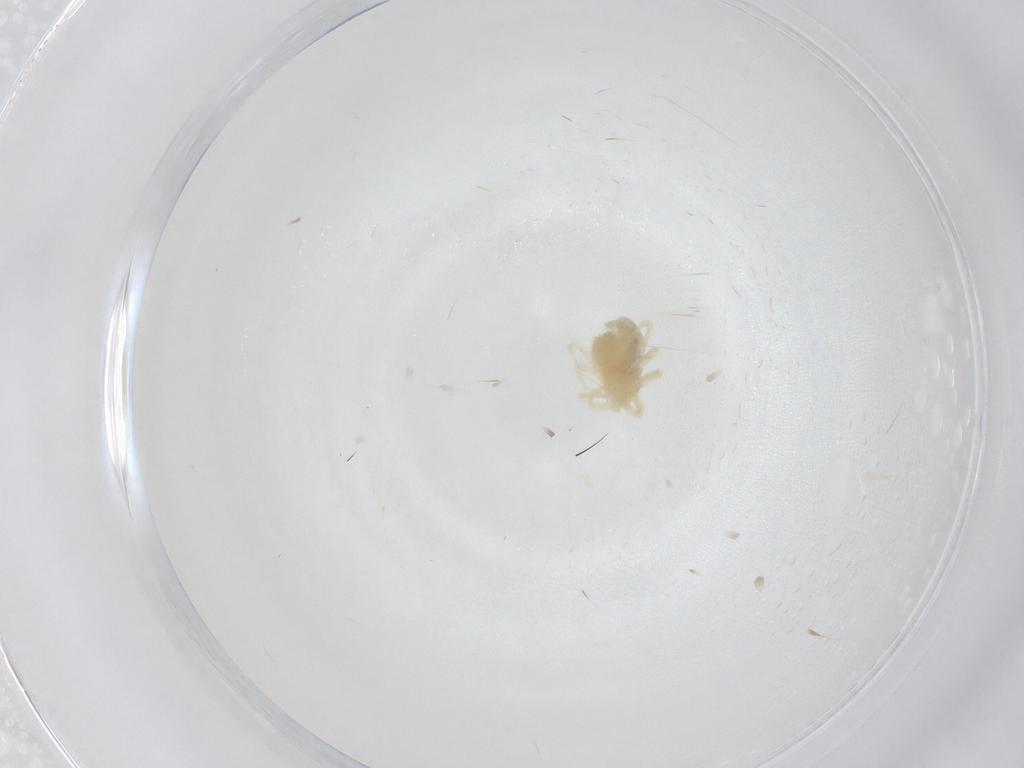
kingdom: Animalia
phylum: Arthropoda
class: Arachnida
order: Trombidiformes
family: Anystidae
